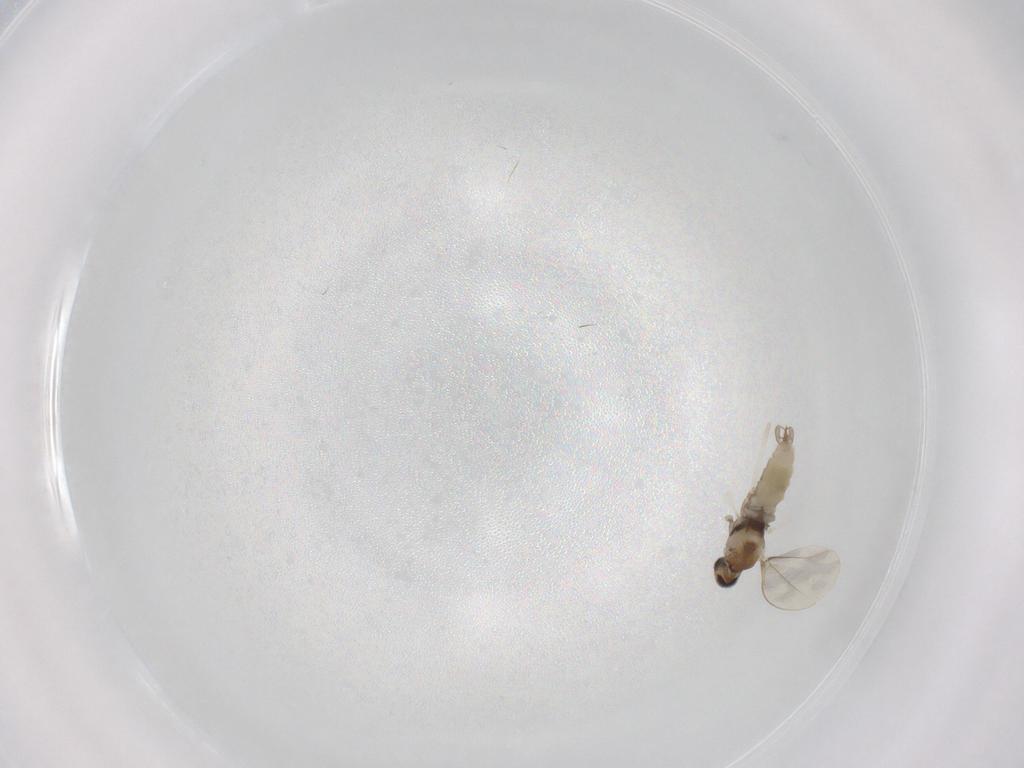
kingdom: Animalia
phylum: Arthropoda
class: Insecta
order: Diptera
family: Cecidomyiidae
